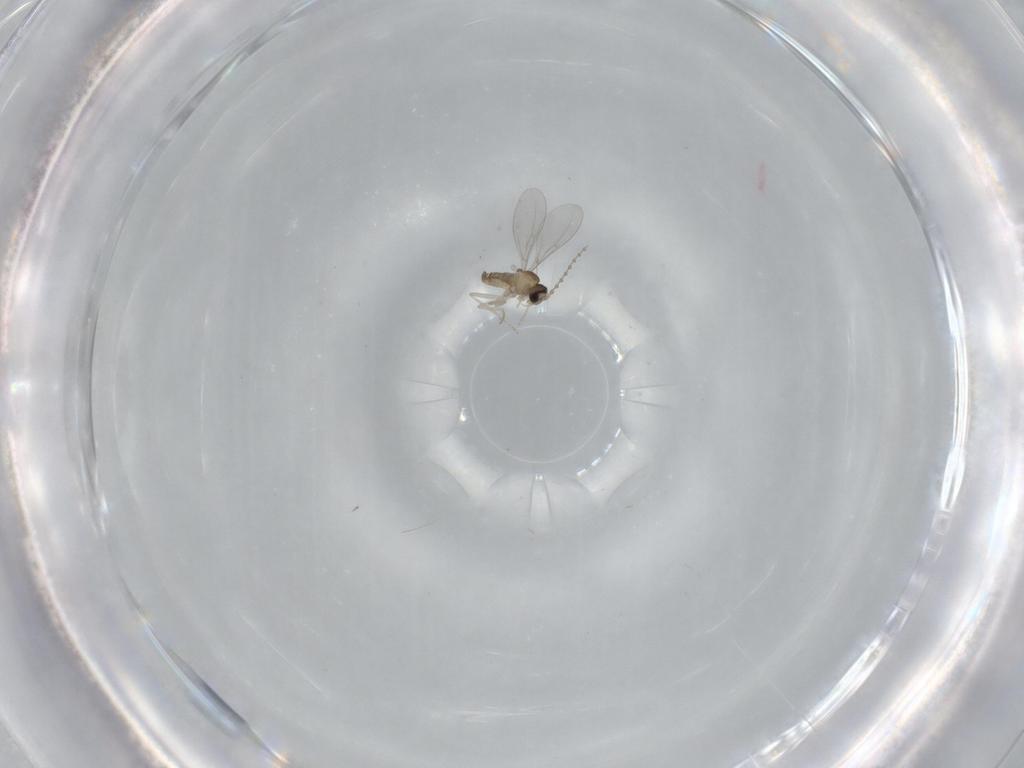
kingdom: Animalia
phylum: Arthropoda
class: Insecta
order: Diptera
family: Cecidomyiidae
